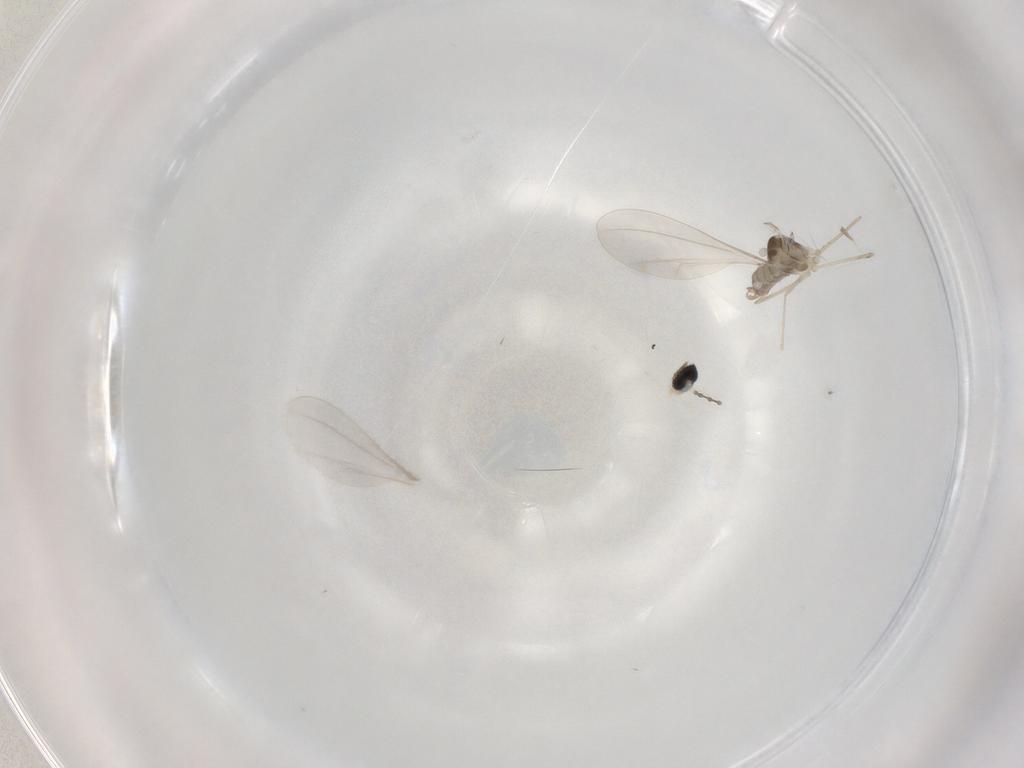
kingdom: Animalia
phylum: Arthropoda
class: Insecta
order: Diptera
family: Cecidomyiidae
